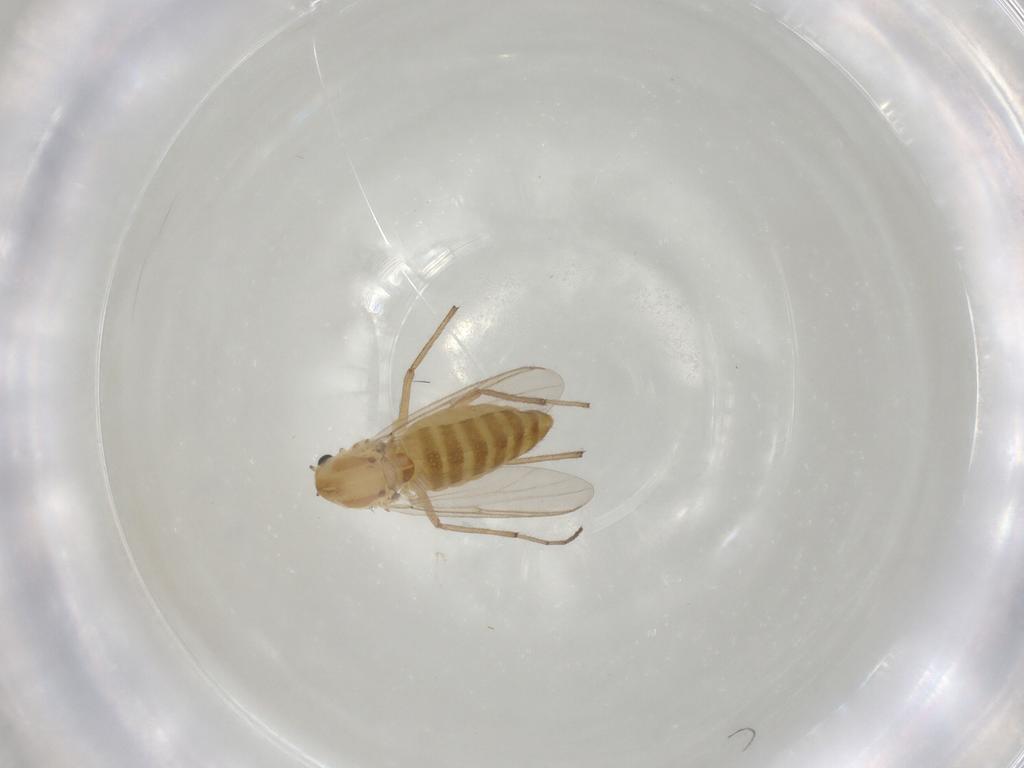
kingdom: Animalia
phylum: Arthropoda
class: Insecta
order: Diptera
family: Chironomidae
